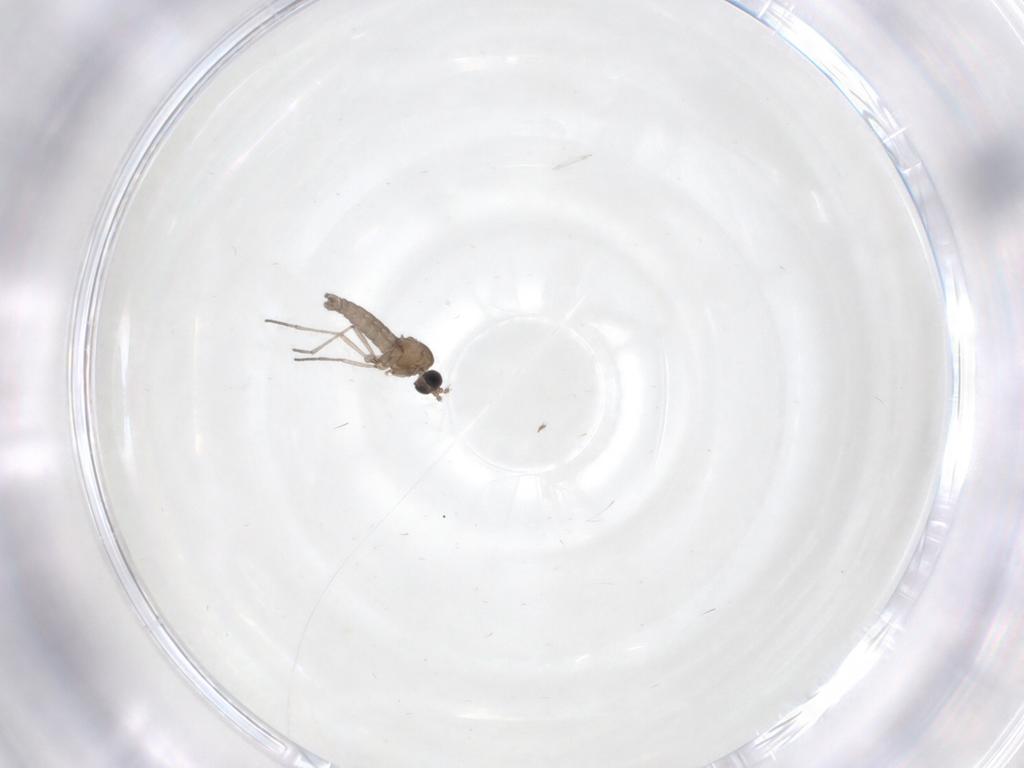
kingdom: Animalia
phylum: Arthropoda
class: Insecta
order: Diptera
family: Sciaridae
